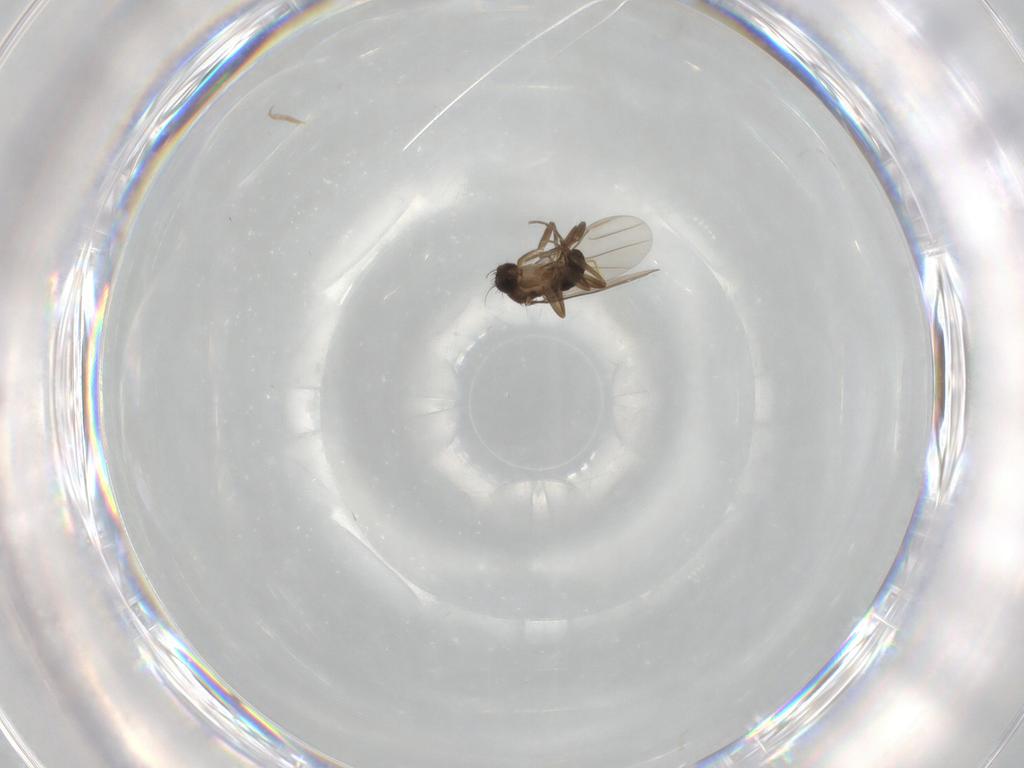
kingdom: Animalia
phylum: Arthropoda
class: Insecta
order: Diptera
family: Phoridae
